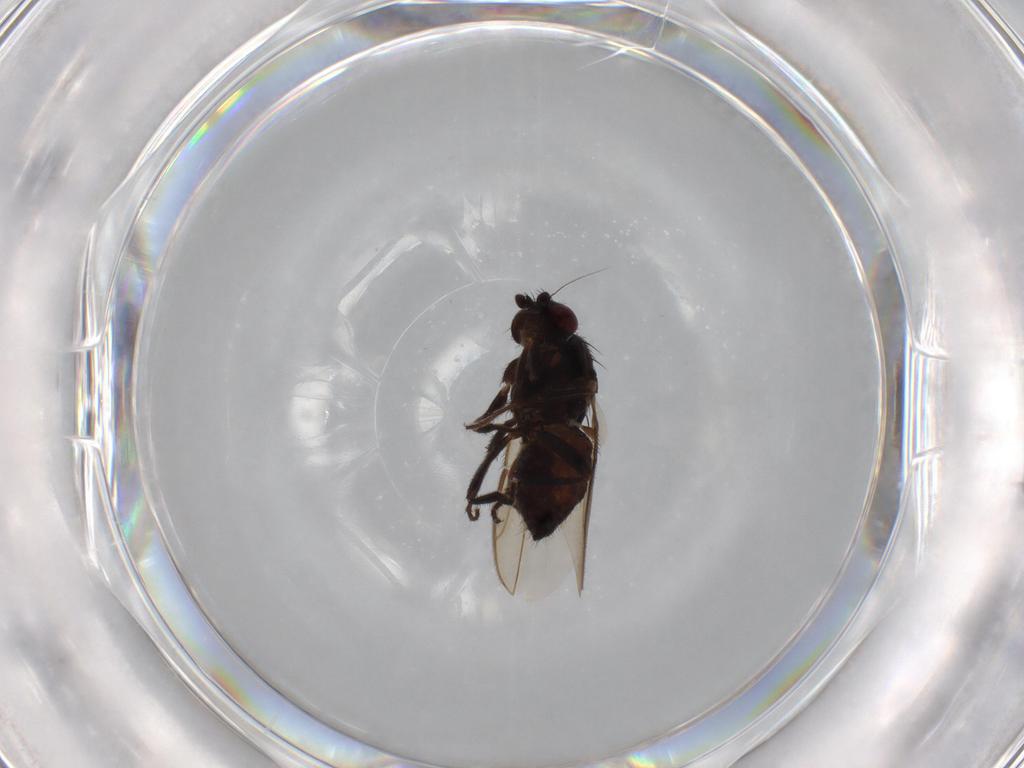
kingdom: Animalia
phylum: Arthropoda
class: Insecta
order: Diptera
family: Sphaeroceridae
